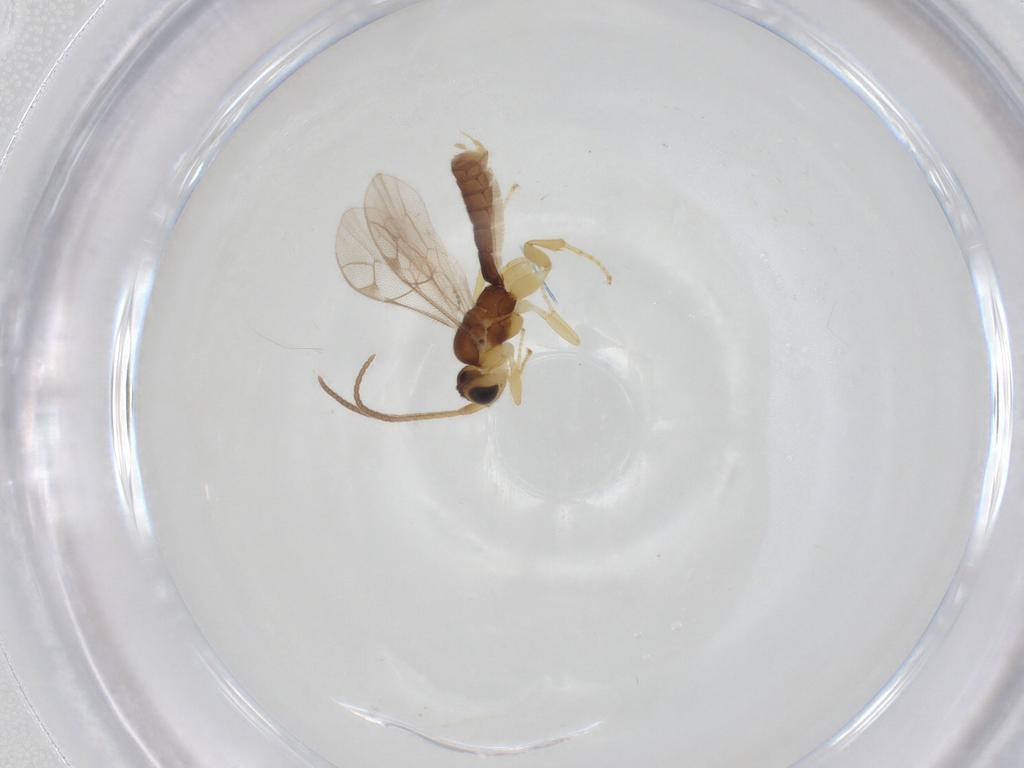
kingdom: Animalia
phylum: Arthropoda
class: Insecta
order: Hymenoptera
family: Ichneumonidae
